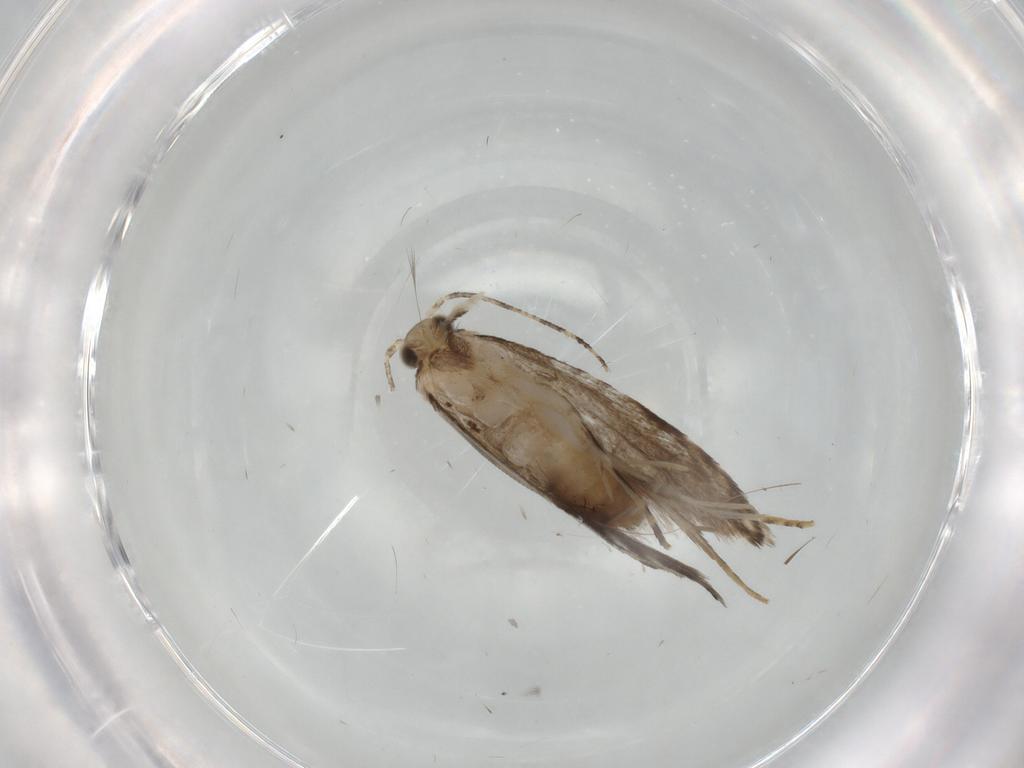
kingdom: Animalia
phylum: Arthropoda
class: Insecta
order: Lepidoptera
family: Tineidae
